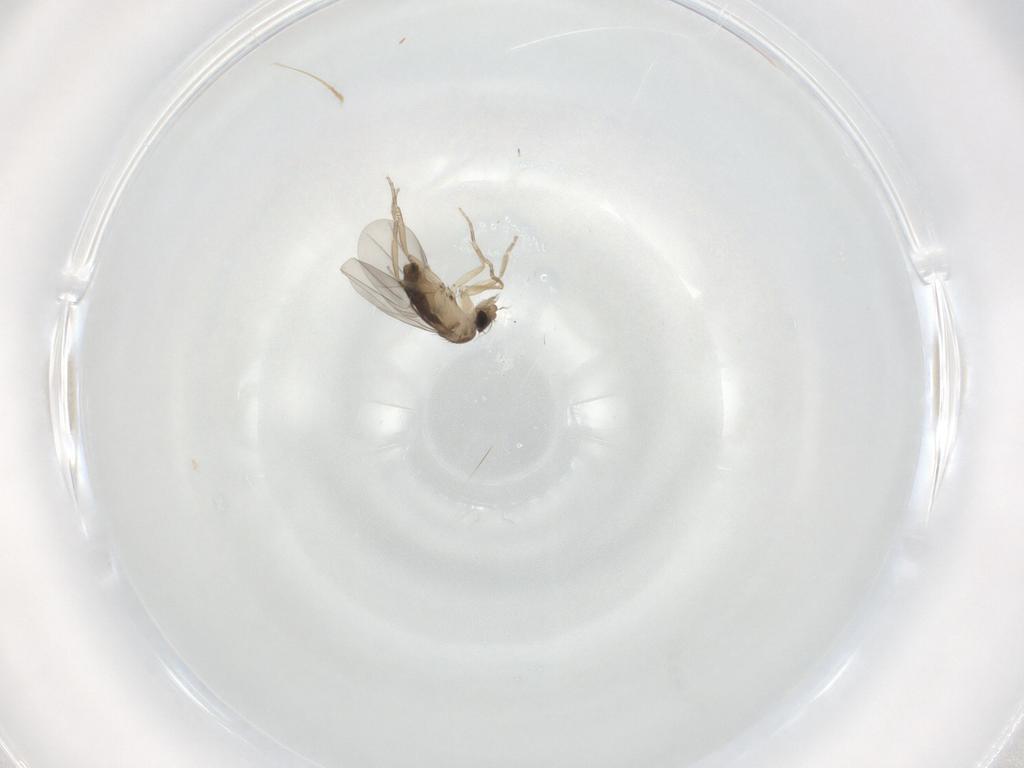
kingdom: Animalia
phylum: Arthropoda
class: Insecta
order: Diptera
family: Phoridae
